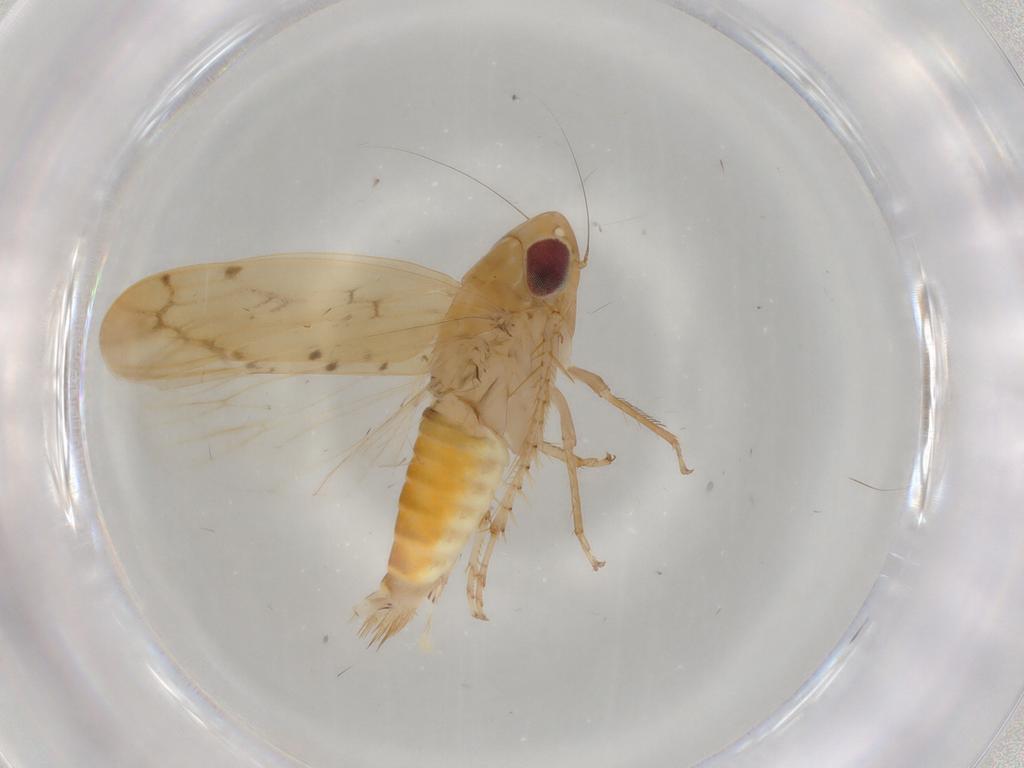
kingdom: Animalia
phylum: Arthropoda
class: Insecta
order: Hemiptera
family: Cicadellidae
